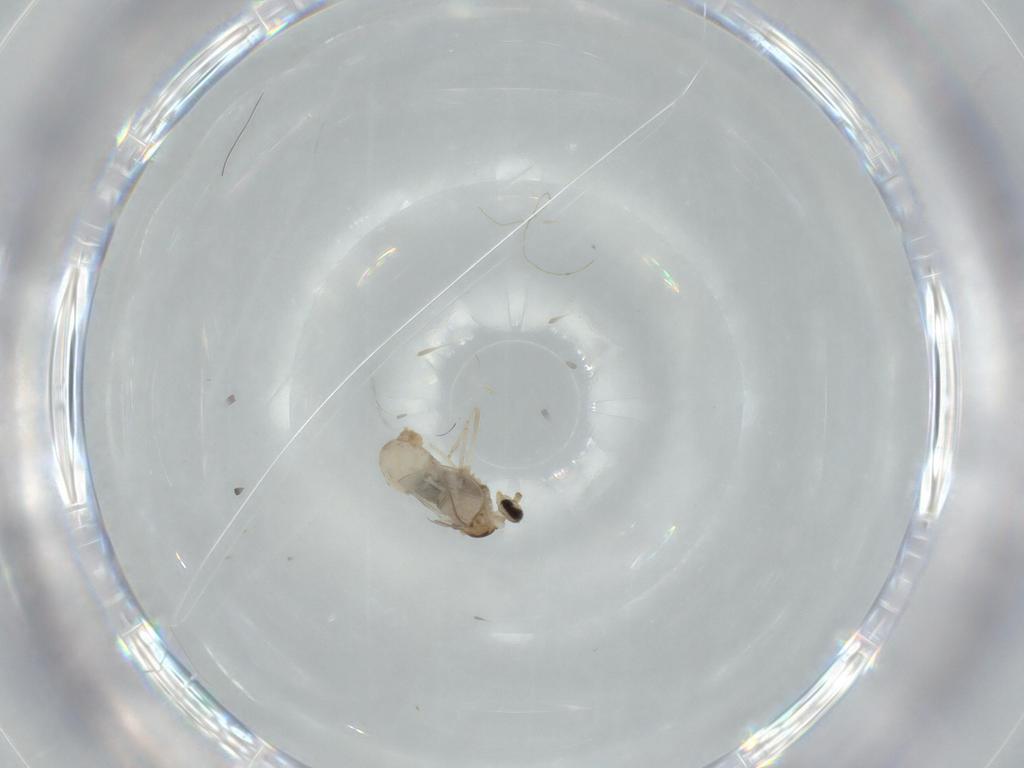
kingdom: Animalia
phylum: Arthropoda
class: Insecta
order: Diptera
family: Cecidomyiidae
